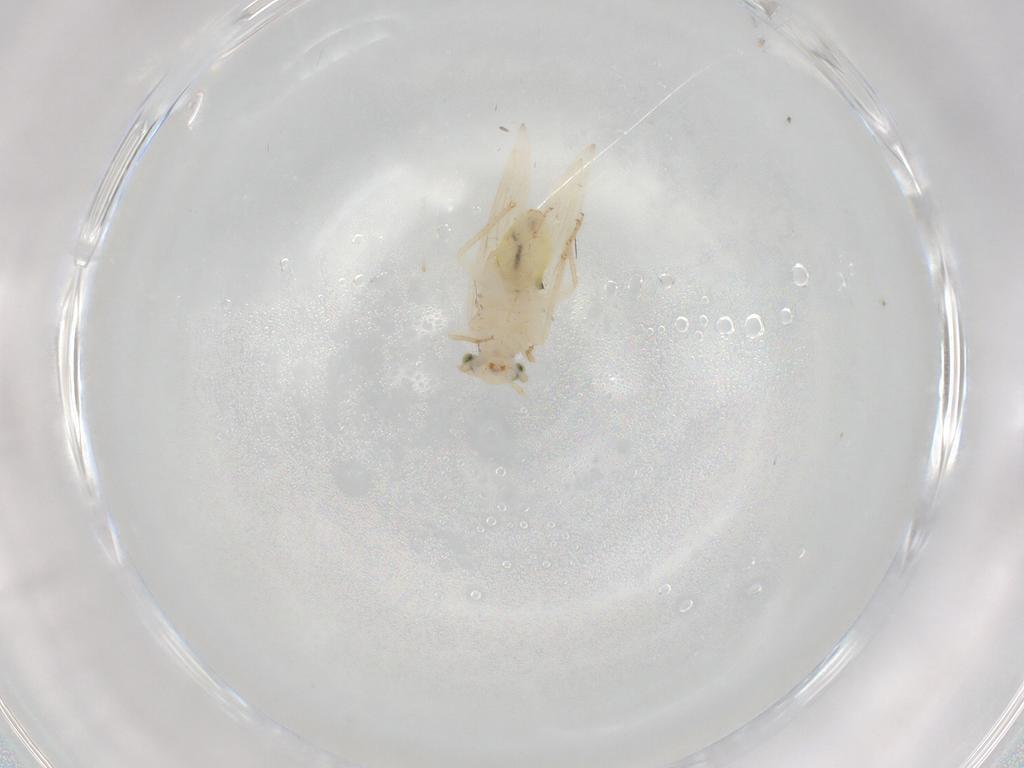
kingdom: Animalia
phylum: Arthropoda
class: Insecta
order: Psocodea
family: Lepidopsocidae
